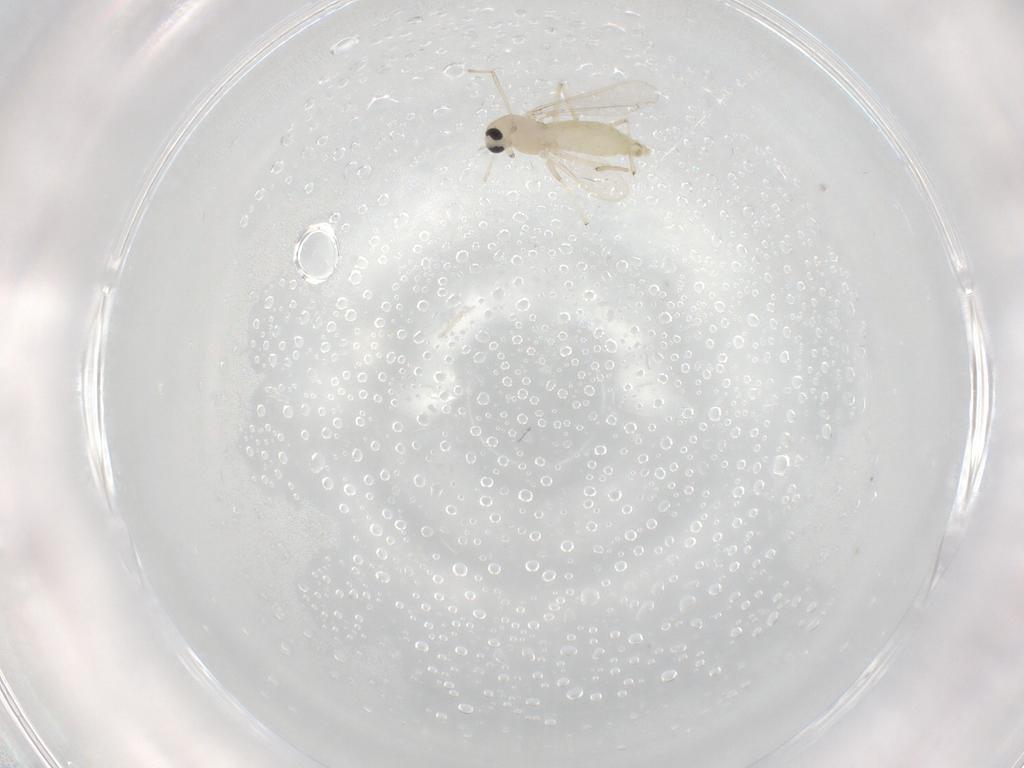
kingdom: Animalia
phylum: Arthropoda
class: Insecta
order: Diptera
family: Chironomidae
